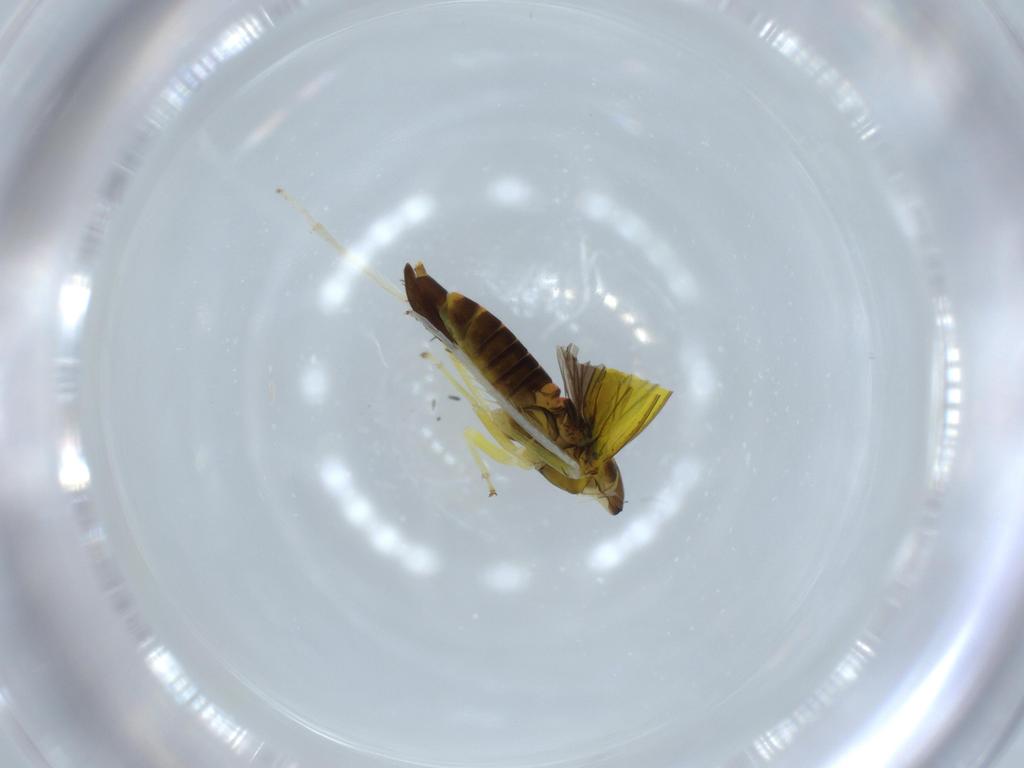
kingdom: Animalia
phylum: Arthropoda
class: Insecta
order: Hemiptera
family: Cicadellidae
